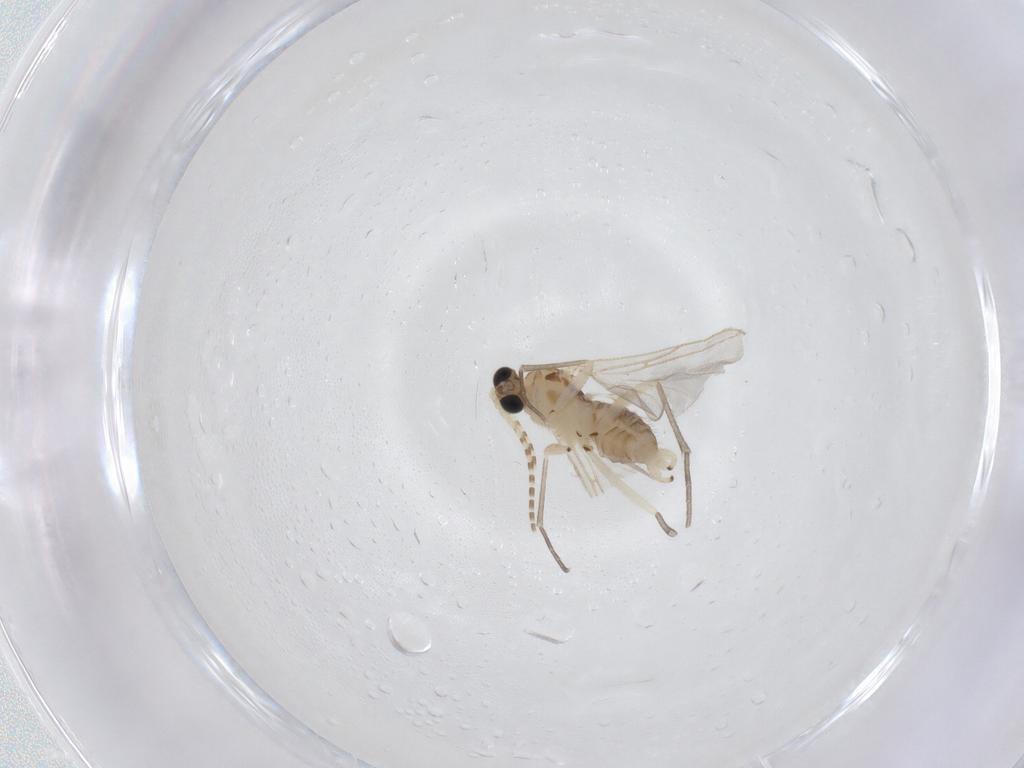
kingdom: Animalia
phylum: Arthropoda
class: Insecta
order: Diptera
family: Sciaridae
